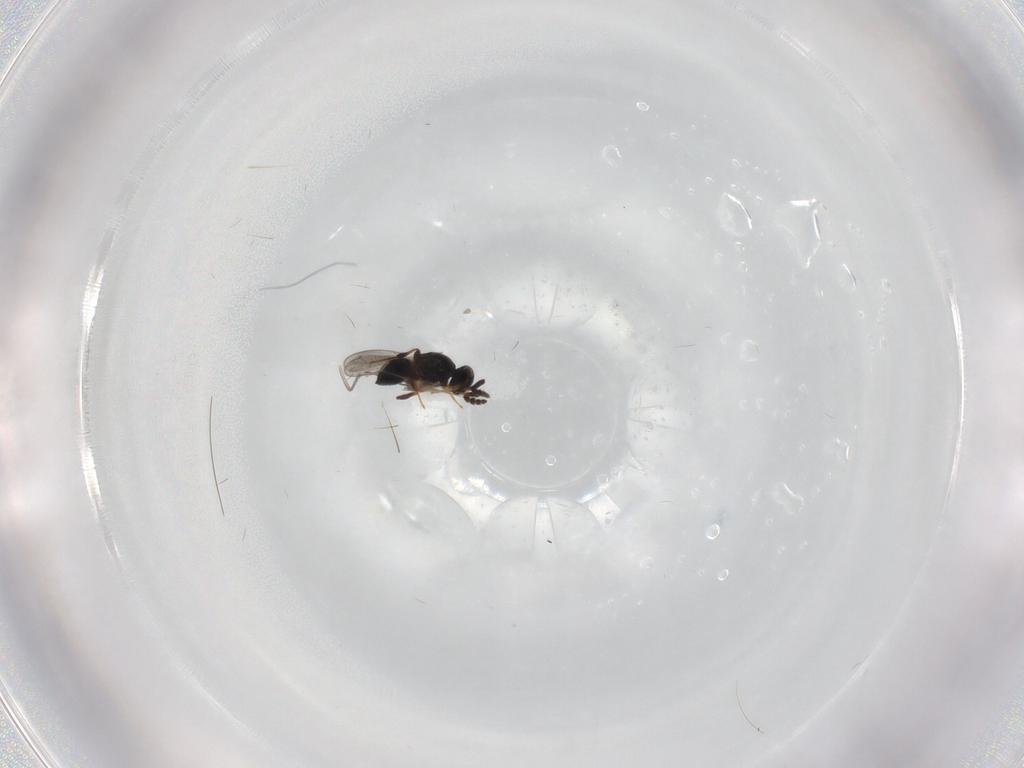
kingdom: Animalia
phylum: Arthropoda
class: Insecta
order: Hymenoptera
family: Platygastridae
